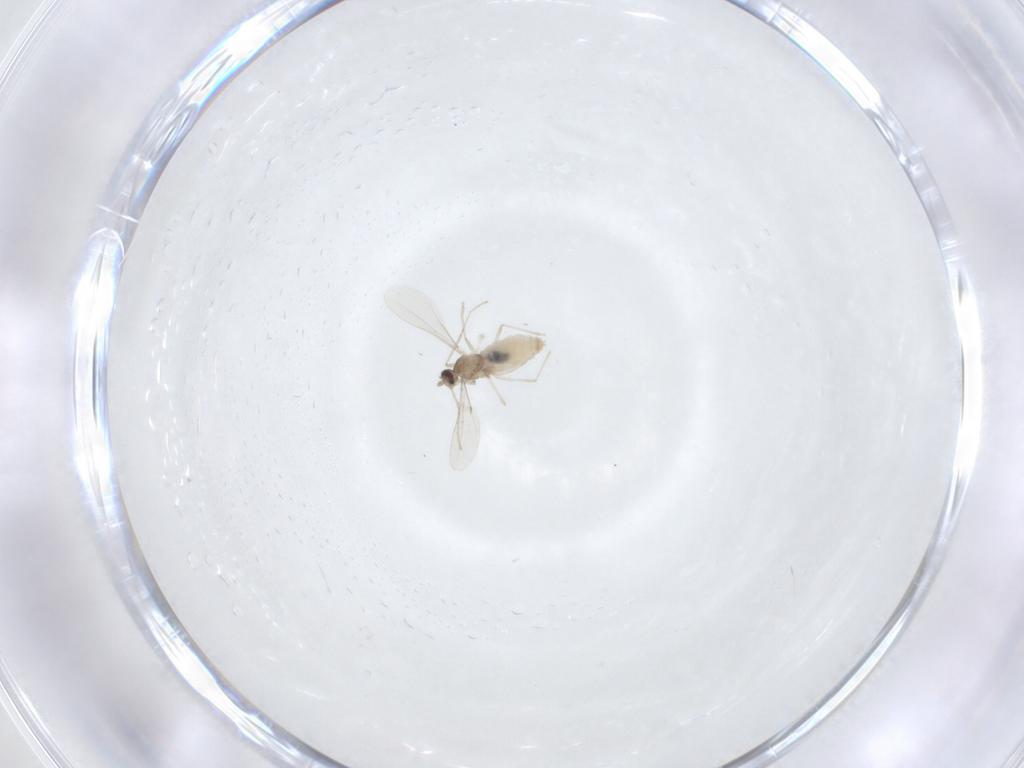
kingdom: Animalia
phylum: Arthropoda
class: Insecta
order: Diptera
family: Cecidomyiidae
